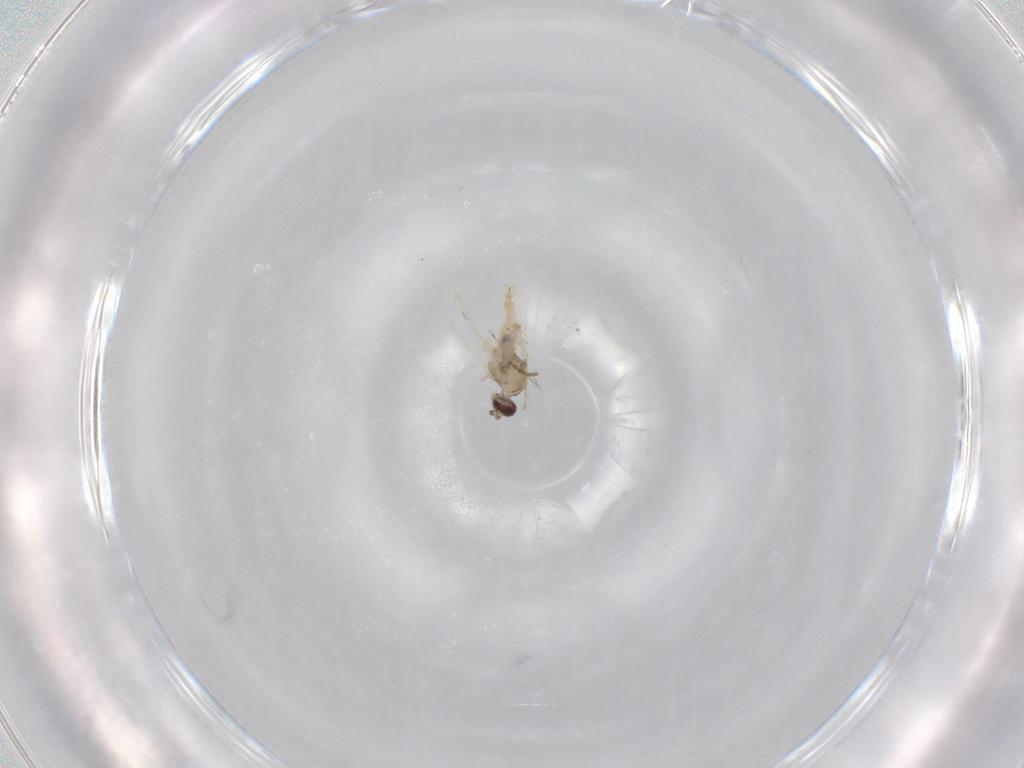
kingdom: Animalia
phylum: Arthropoda
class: Insecta
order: Diptera
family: Cecidomyiidae
